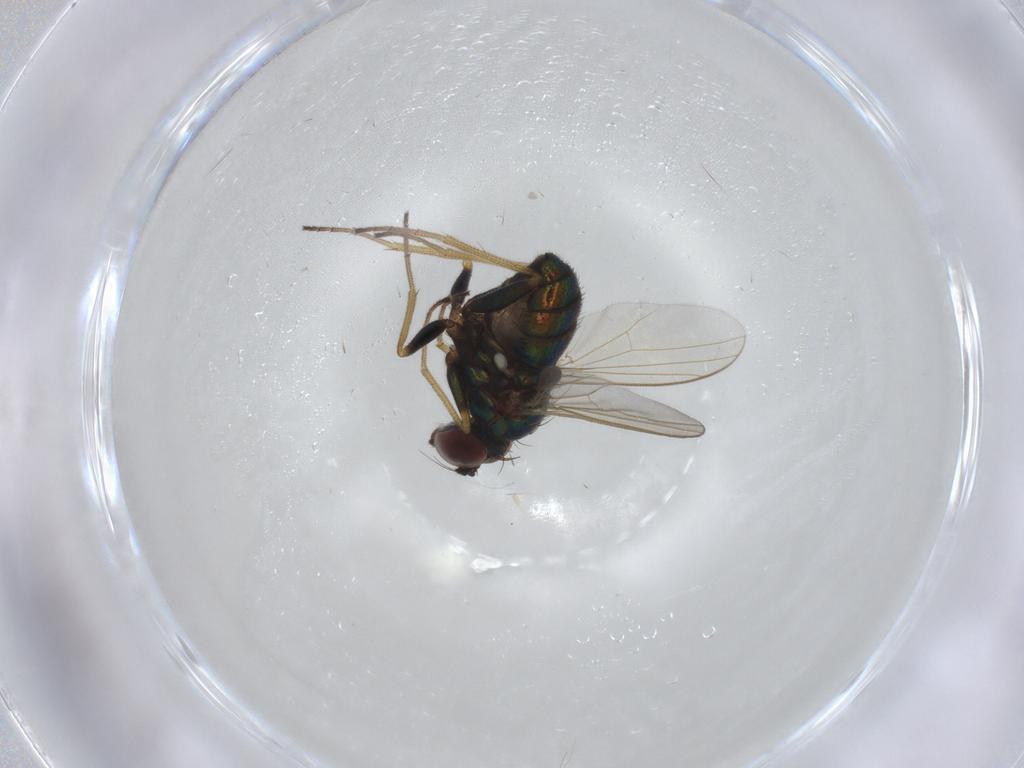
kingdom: Animalia
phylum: Arthropoda
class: Insecta
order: Diptera
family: Dolichopodidae
